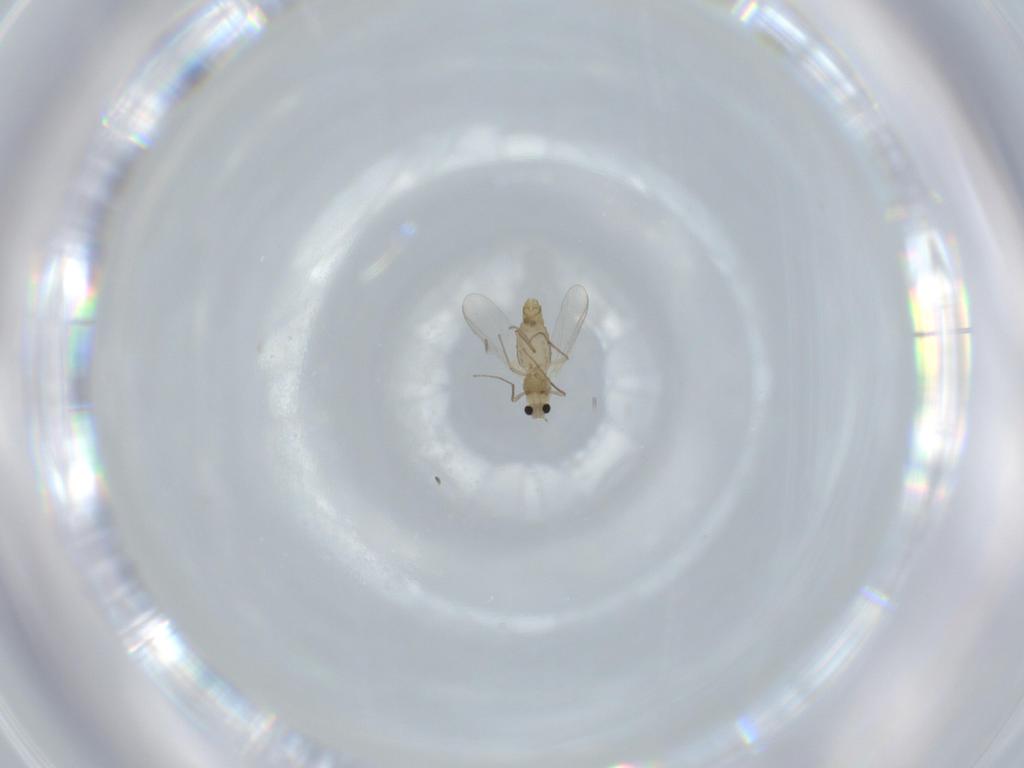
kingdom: Animalia
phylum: Arthropoda
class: Insecta
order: Diptera
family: Chironomidae
